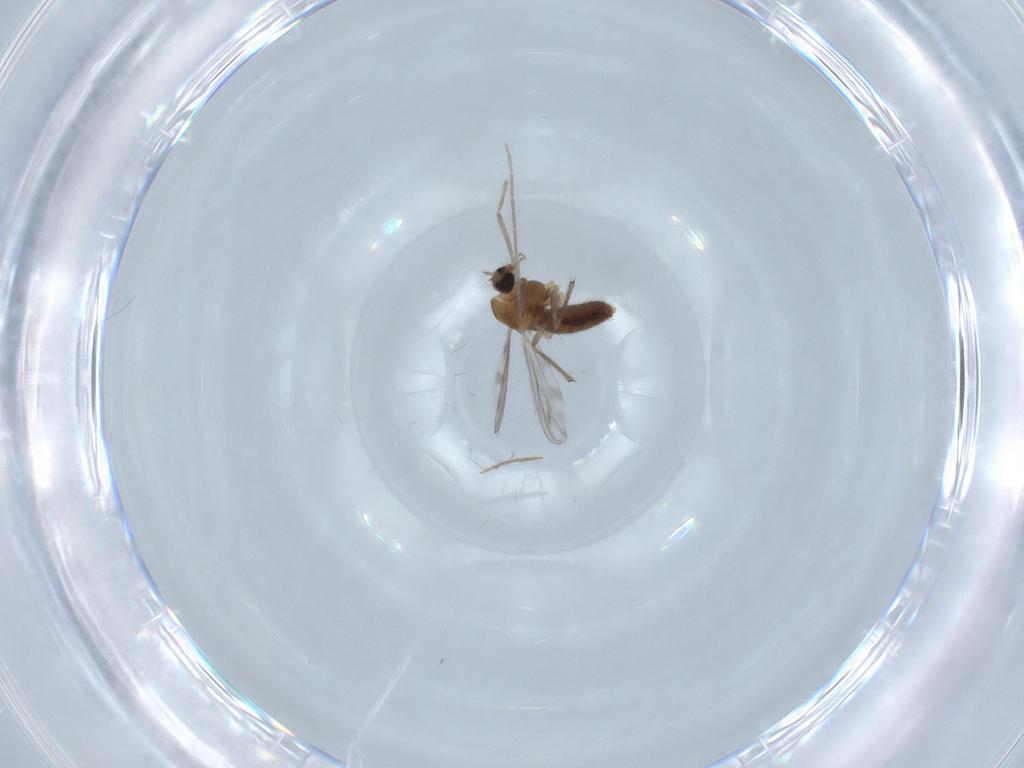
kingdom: Animalia
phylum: Arthropoda
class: Insecta
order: Diptera
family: Chironomidae
